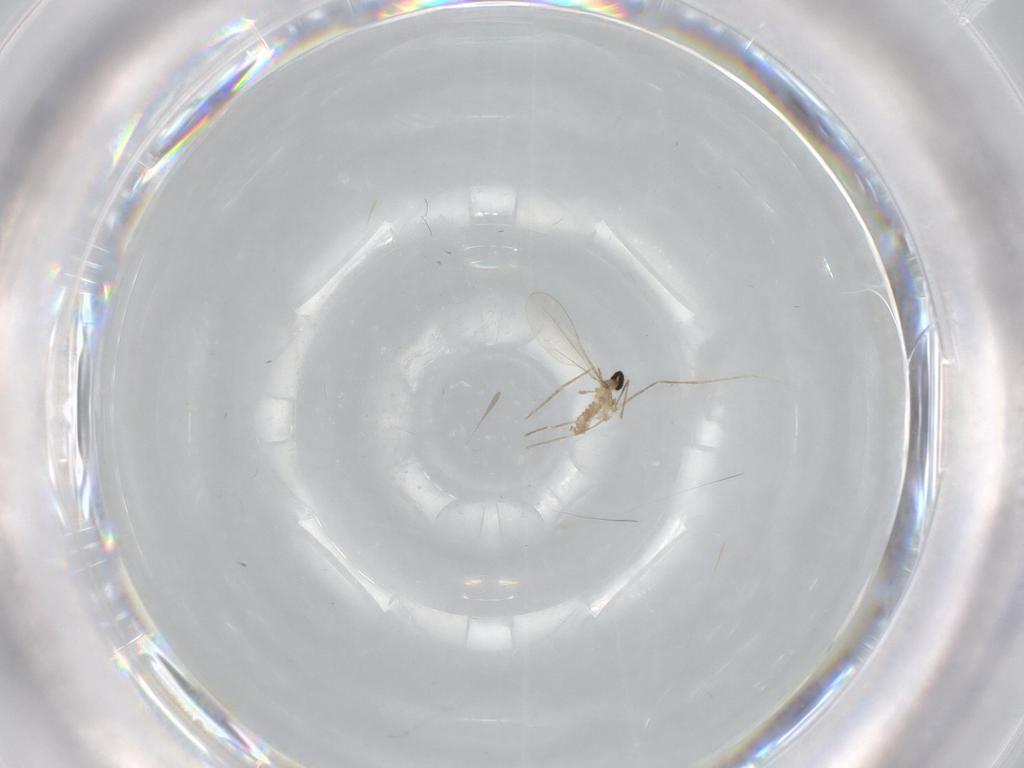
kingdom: Animalia
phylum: Arthropoda
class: Insecta
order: Diptera
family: Cecidomyiidae
